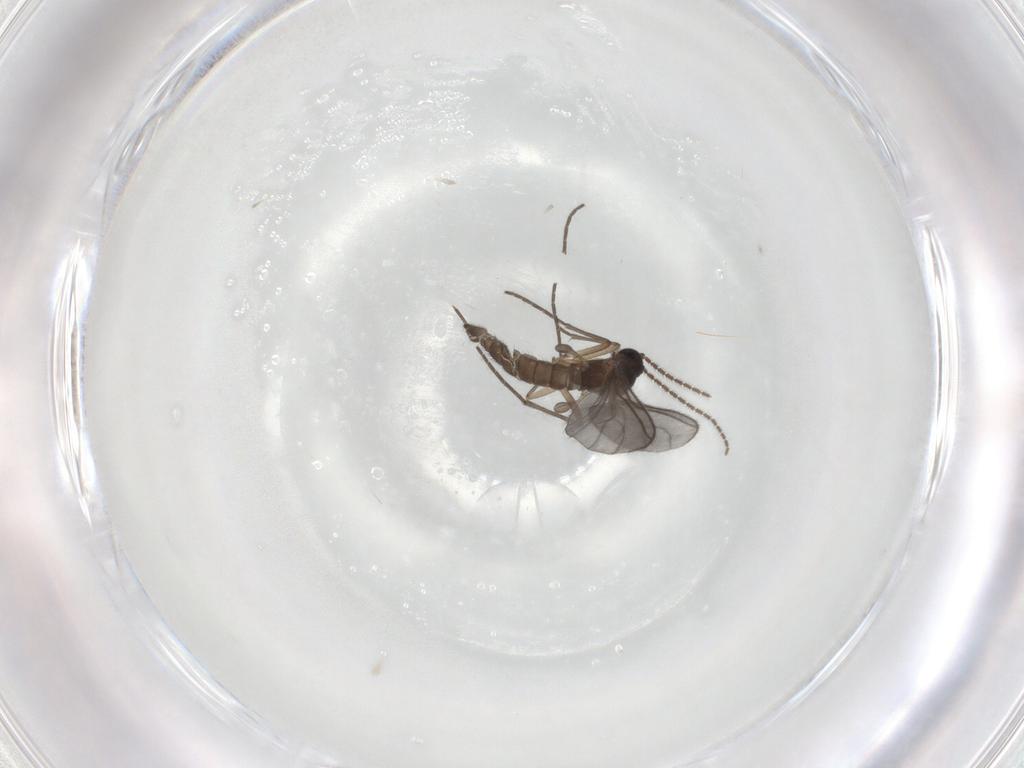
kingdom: Animalia
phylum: Arthropoda
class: Insecta
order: Diptera
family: Sciaridae
